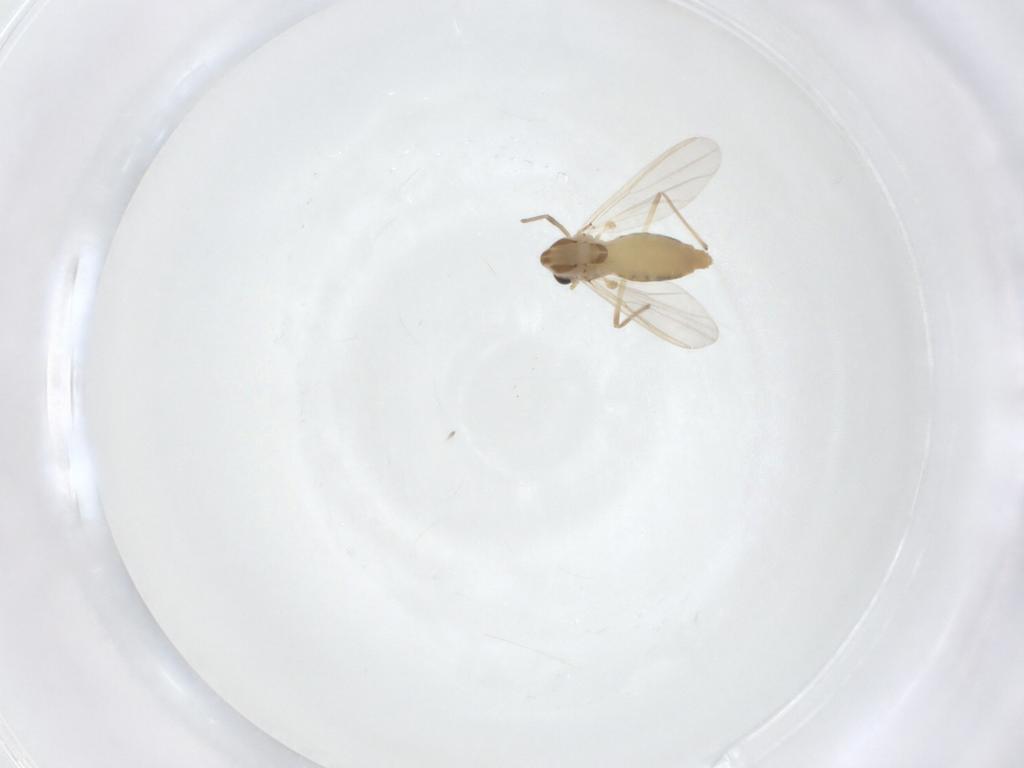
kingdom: Animalia
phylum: Arthropoda
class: Insecta
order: Diptera
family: Chironomidae
